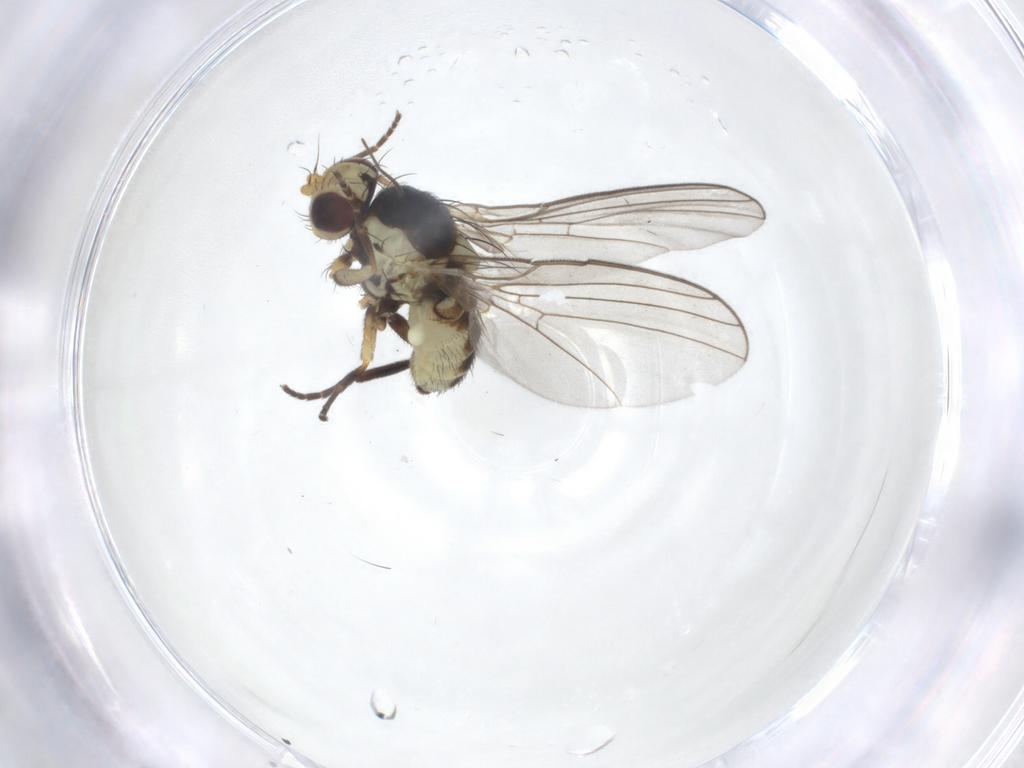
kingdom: Animalia
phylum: Arthropoda
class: Insecta
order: Diptera
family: Agromyzidae
